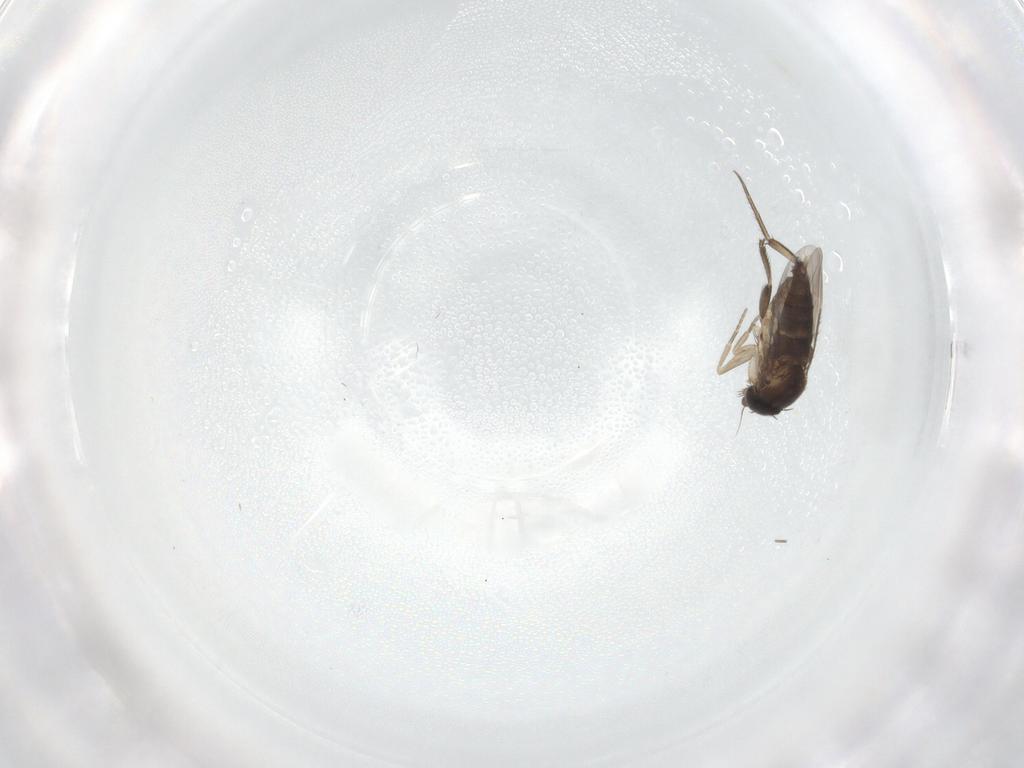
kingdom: Animalia
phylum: Arthropoda
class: Insecta
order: Diptera
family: Phoridae
